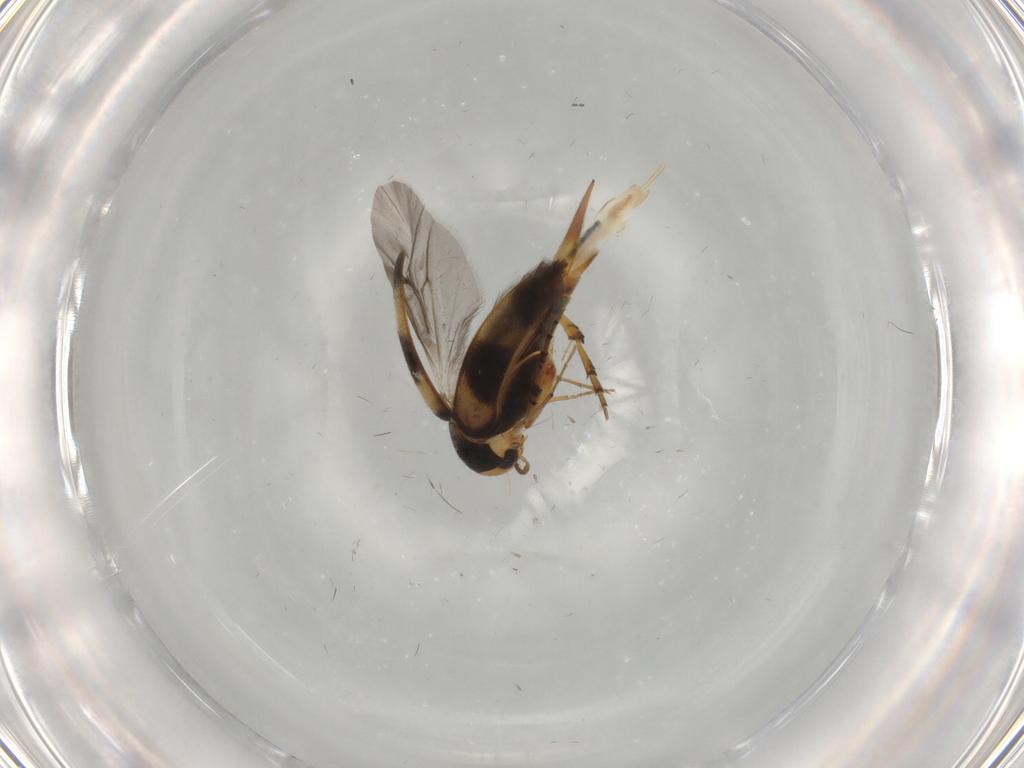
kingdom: Animalia
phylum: Arthropoda
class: Insecta
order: Coleoptera
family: Mordellidae
